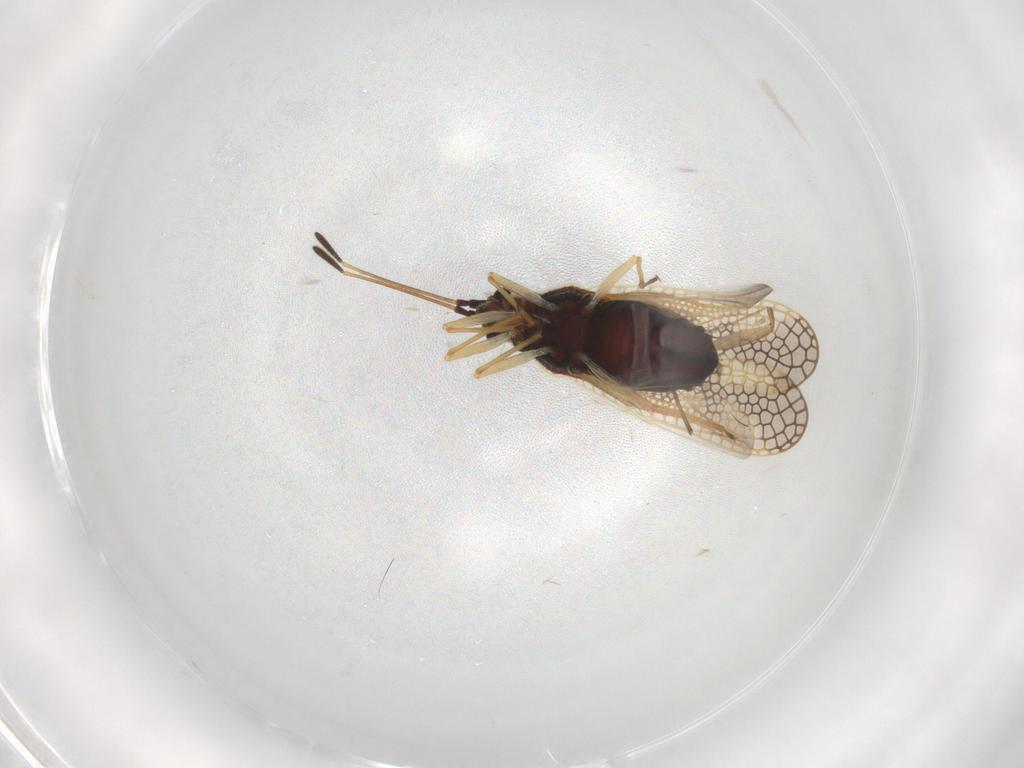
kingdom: Animalia
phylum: Arthropoda
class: Insecta
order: Hemiptera
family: Tingidae
